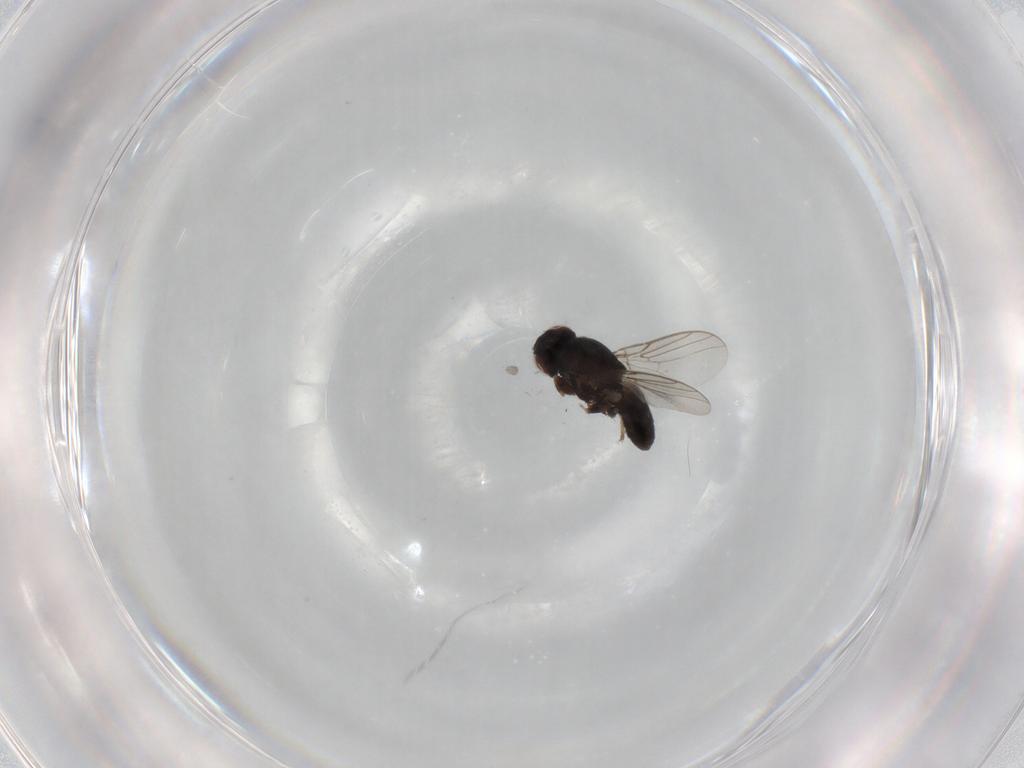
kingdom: Animalia
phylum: Arthropoda
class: Insecta
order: Diptera
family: Chloropidae
